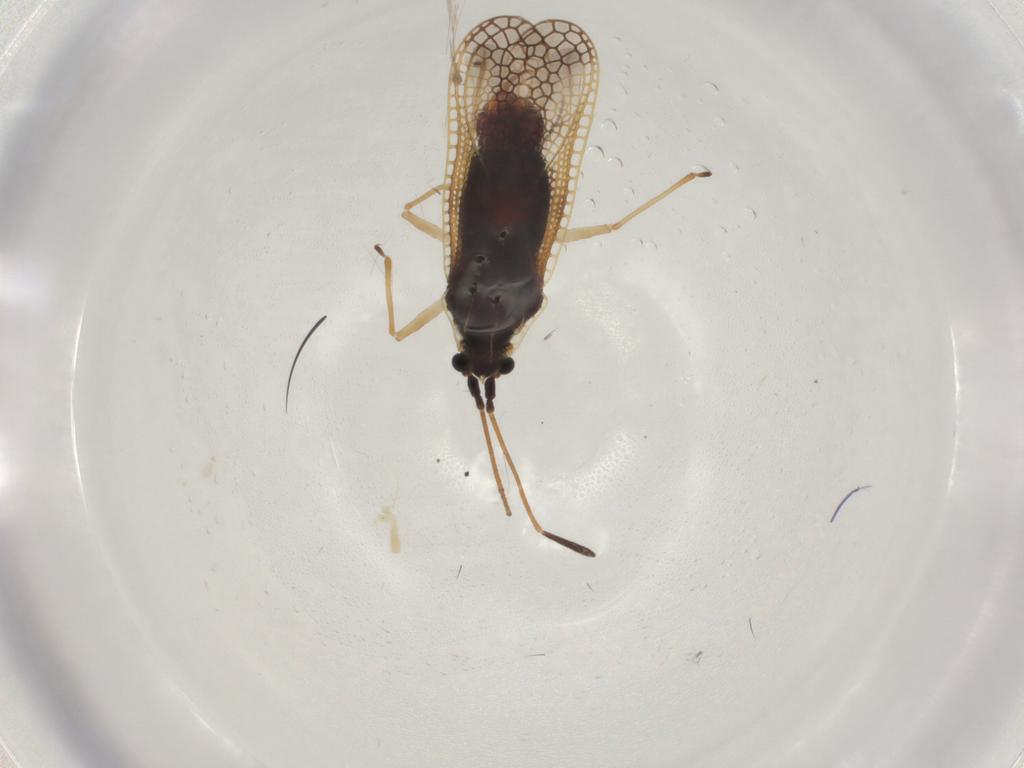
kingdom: Animalia
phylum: Arthropoda
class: Insecta
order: Hemiptera
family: Tingidae
